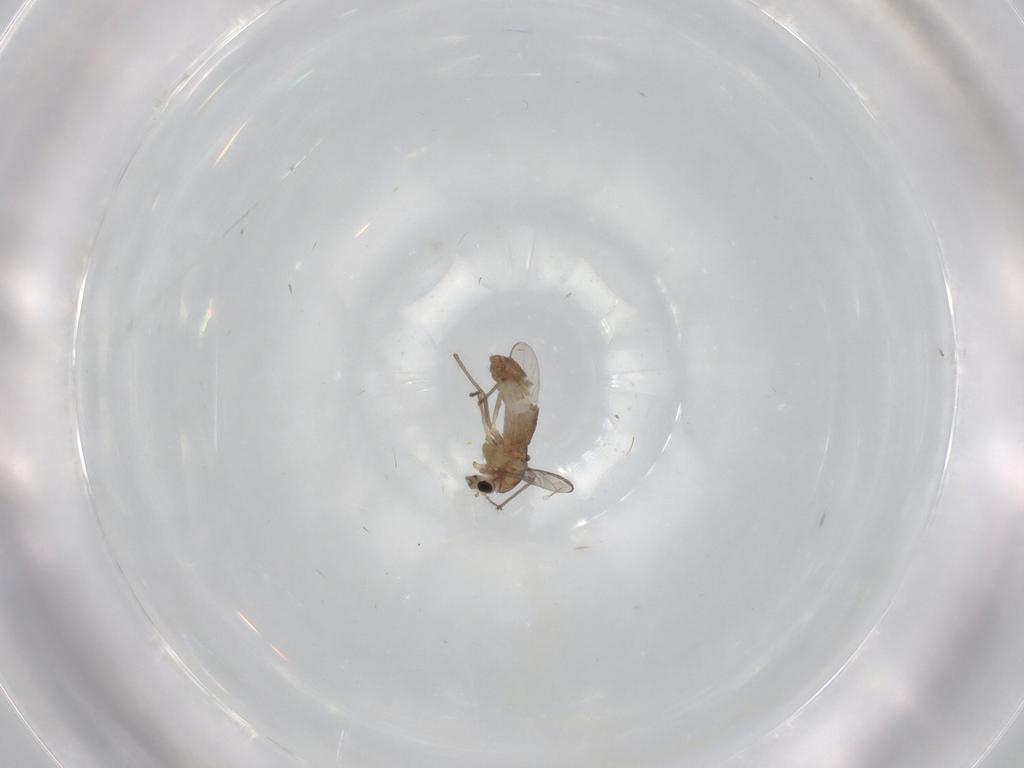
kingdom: Animalia
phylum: Arthropoda
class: Insecta
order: Diptera
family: Chironomidae
